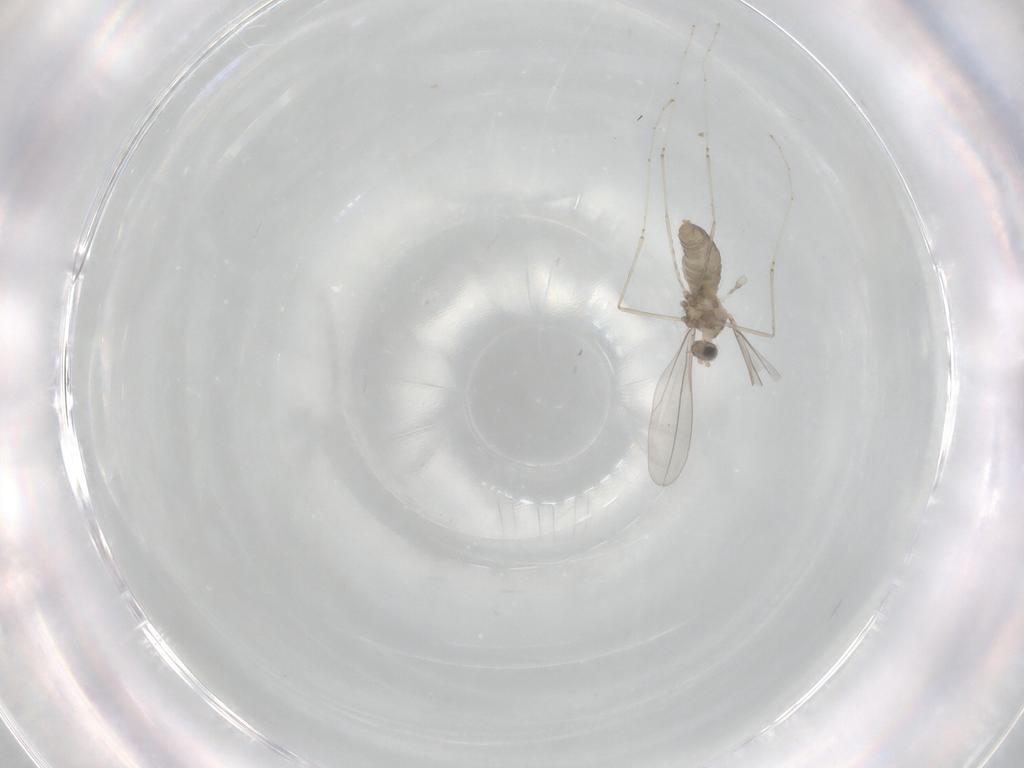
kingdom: Animalia
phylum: Arthropoda
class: Insecta
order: Diptera
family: Cecidomyiidae
